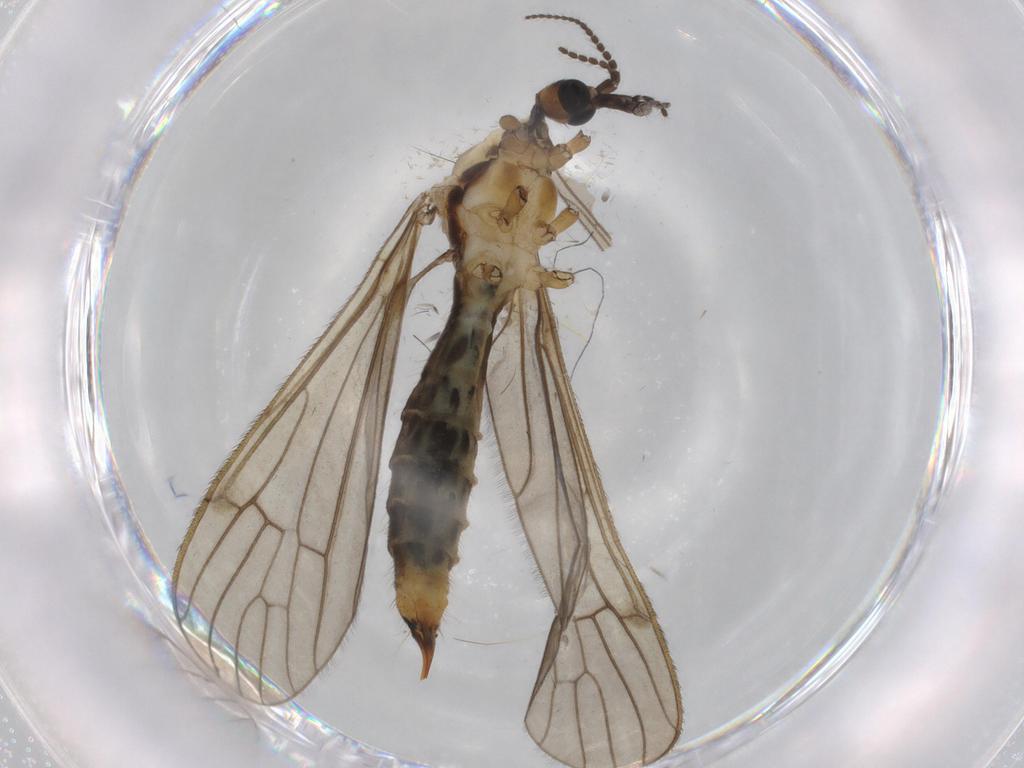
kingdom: Animalia
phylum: Arthropoda
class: Insecta
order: Diptera
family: Limoniidae
